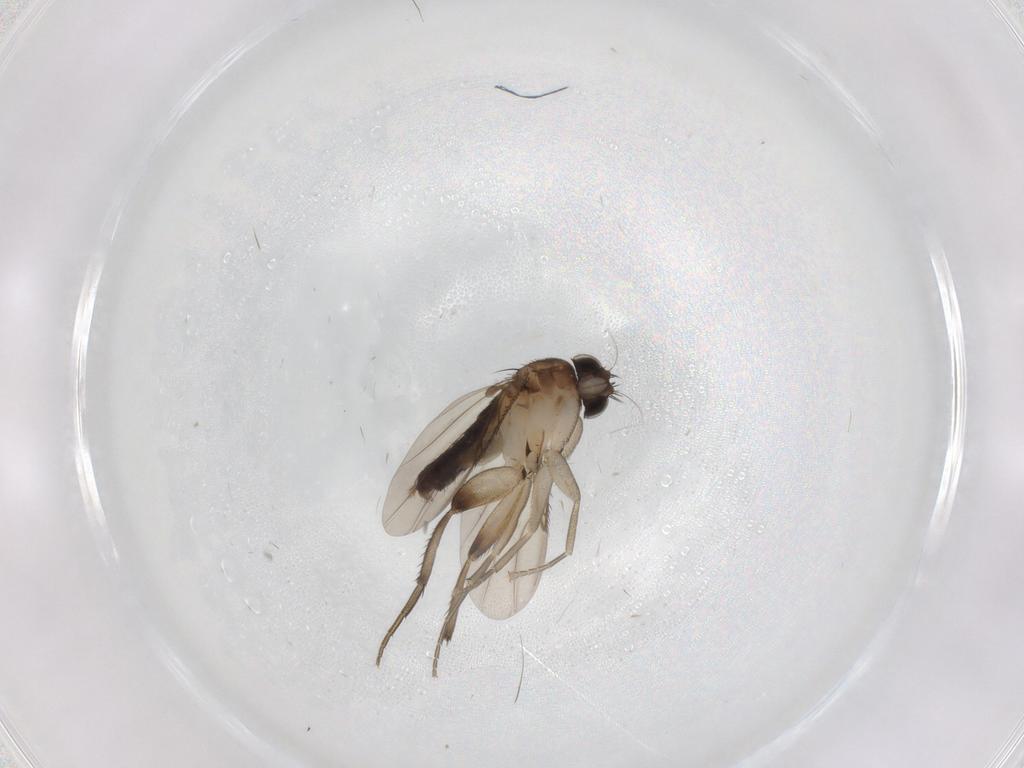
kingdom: Animalia
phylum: Arthropoda
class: Insecta
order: Diptera
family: Phoridae
